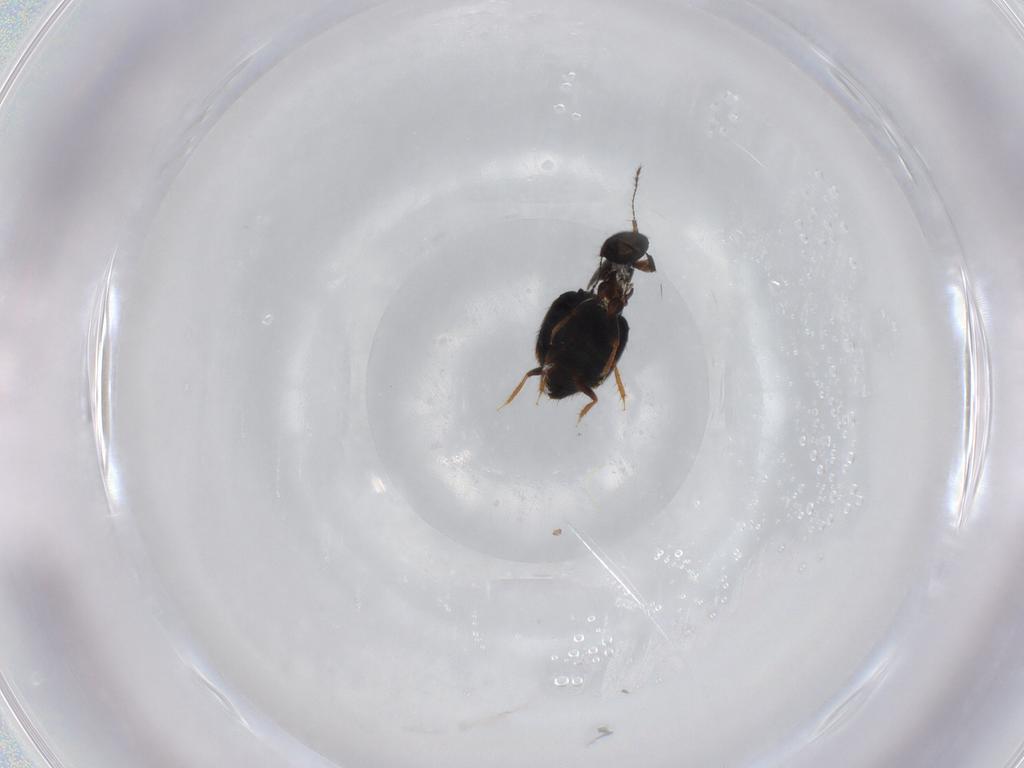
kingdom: Animalia
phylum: Arthropoda
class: Insecta
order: Coleoptera
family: Ptiliidae
